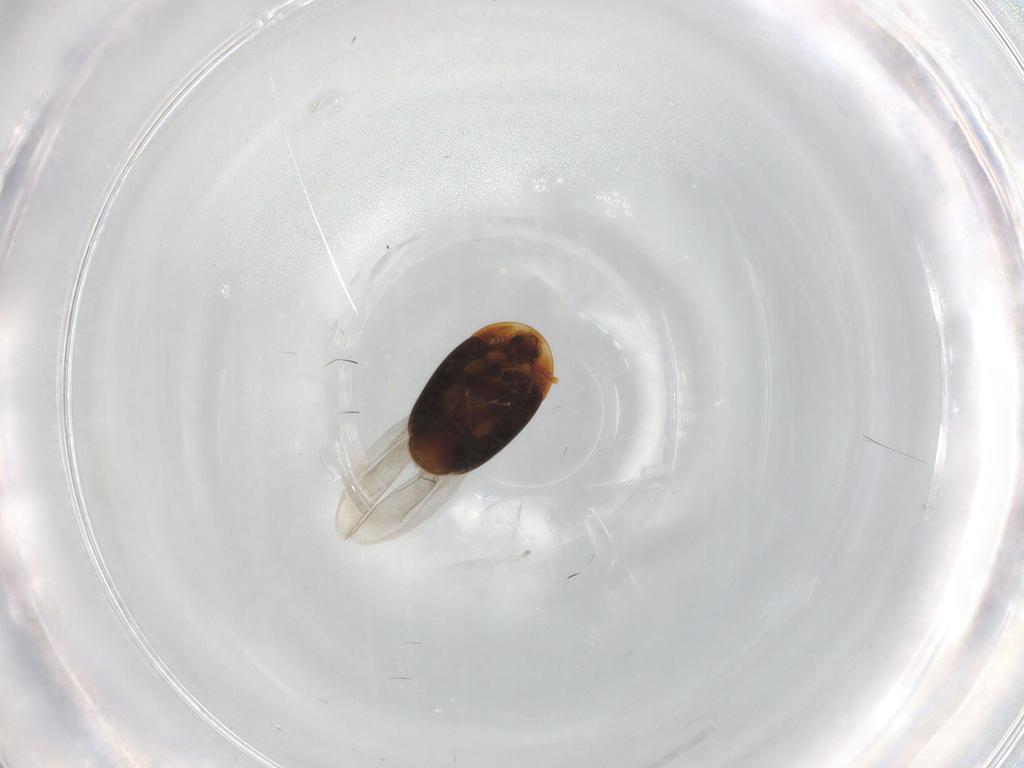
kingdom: Animalia
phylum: Arthropoda
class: Insecta
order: Coleoptera
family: Corylophidae
